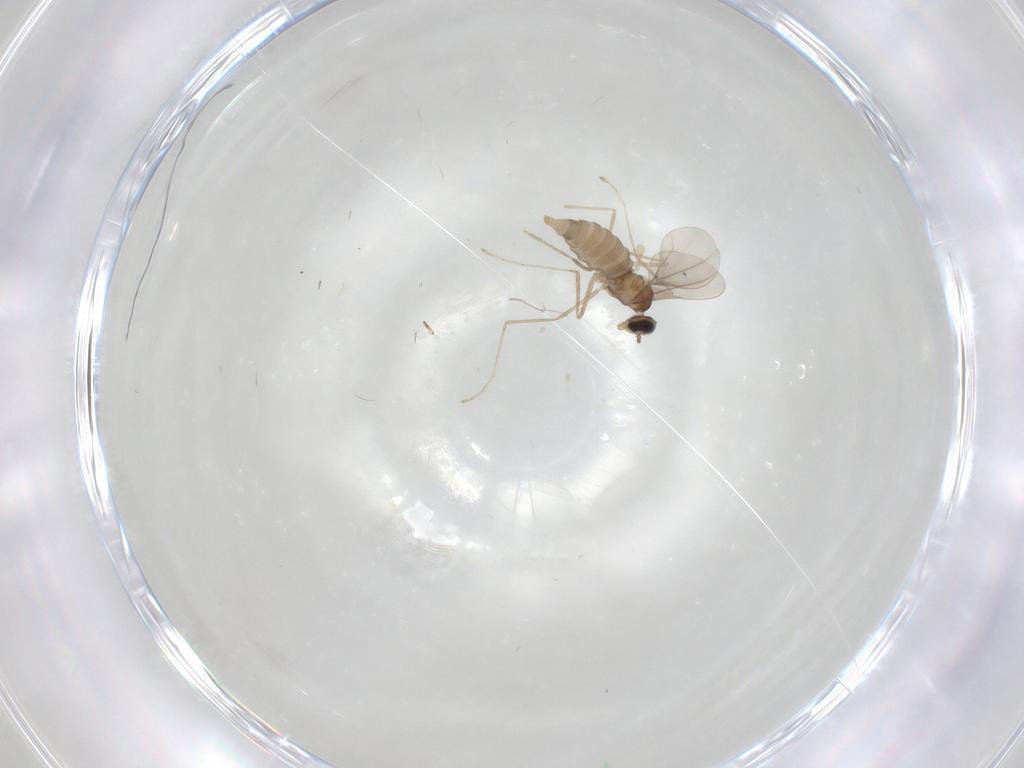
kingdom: Animalia
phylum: Arthropoda
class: Insecta
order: Diptera
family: Cecidomyiidae
